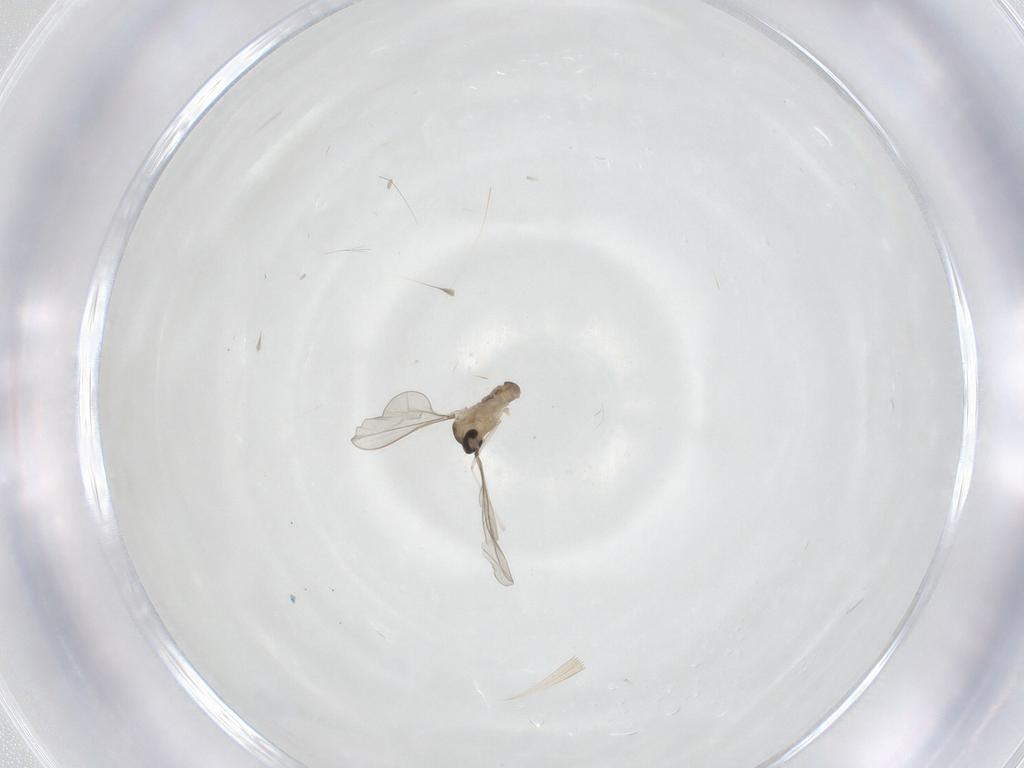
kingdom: Animalia
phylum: Arthropoda
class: Insecta
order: Diptera
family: Cecidomyiidae
